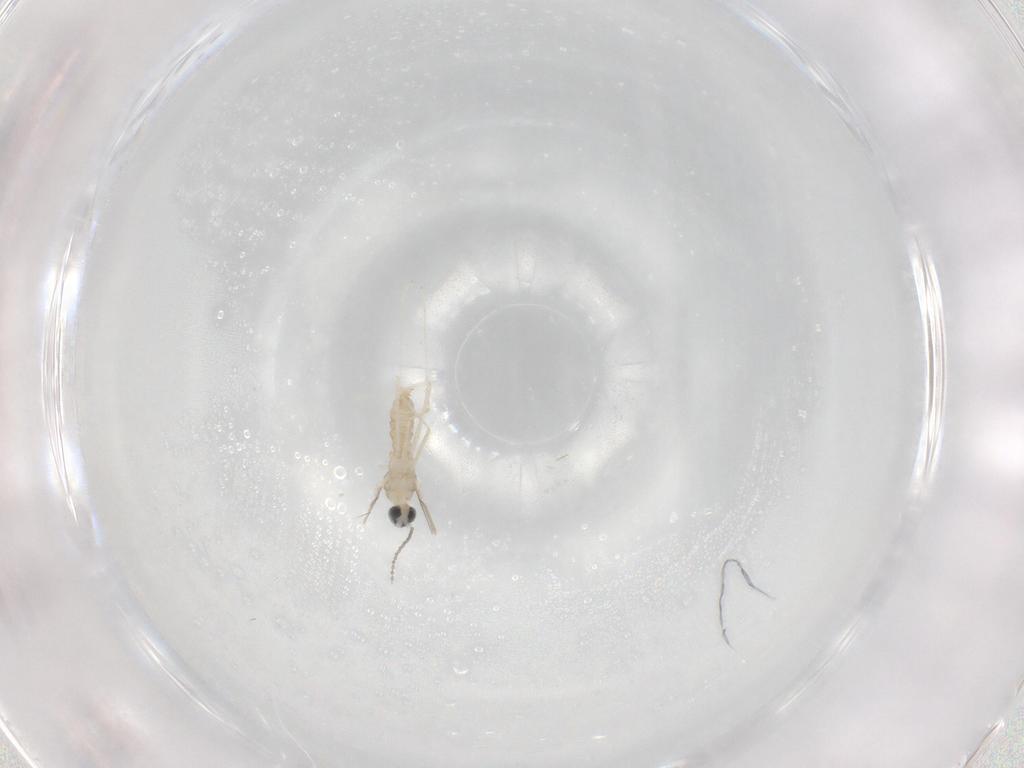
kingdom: Animalia
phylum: Arthropoda
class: Insecta
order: Diptera
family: Cecidomyiidae
